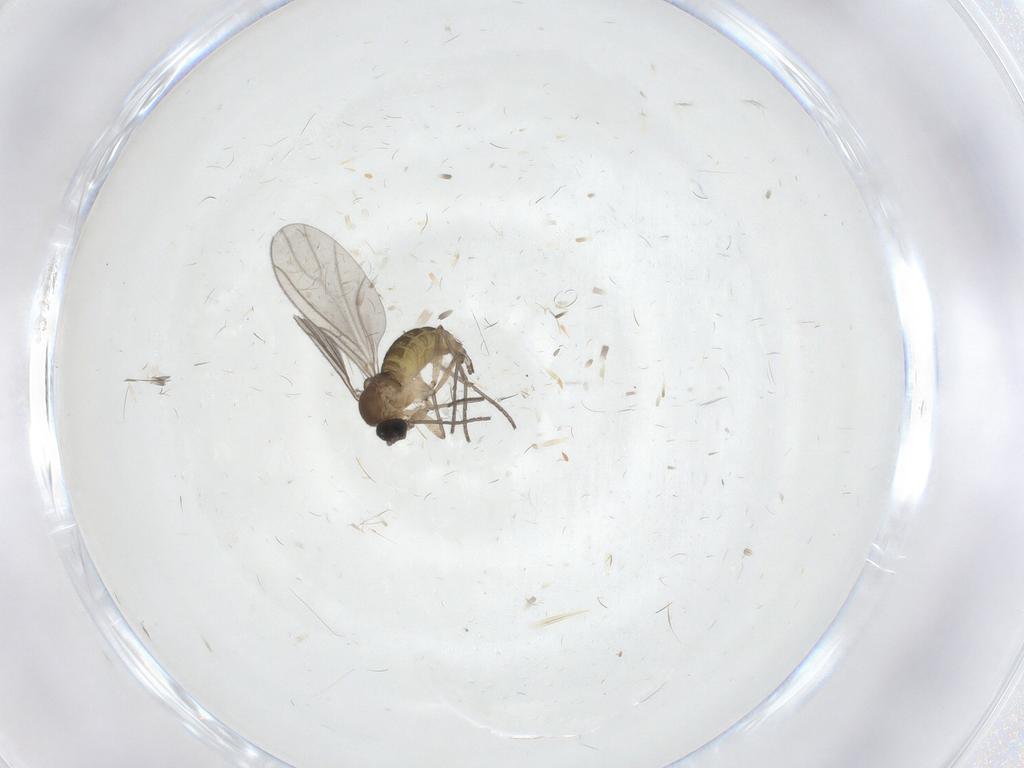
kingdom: Animalia
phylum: Arthropoda
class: Insecta
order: Diptera
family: Sciaridae
